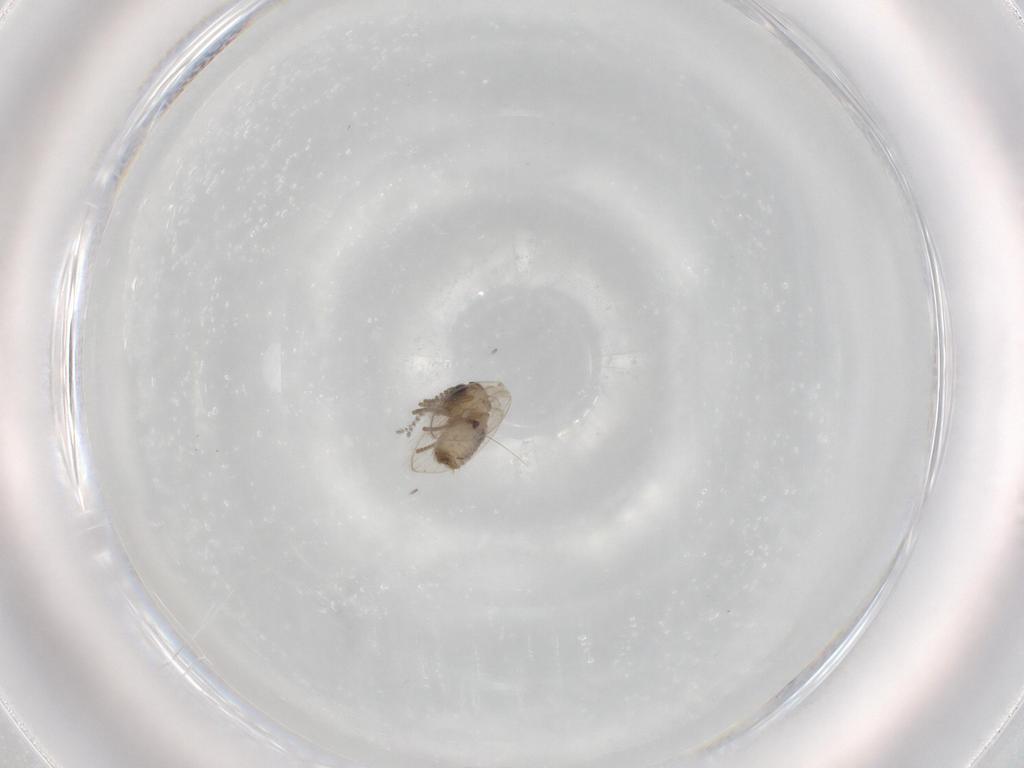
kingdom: Animalia
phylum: Arthropoda
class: Insecta
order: Diptera
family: Psychodidae
